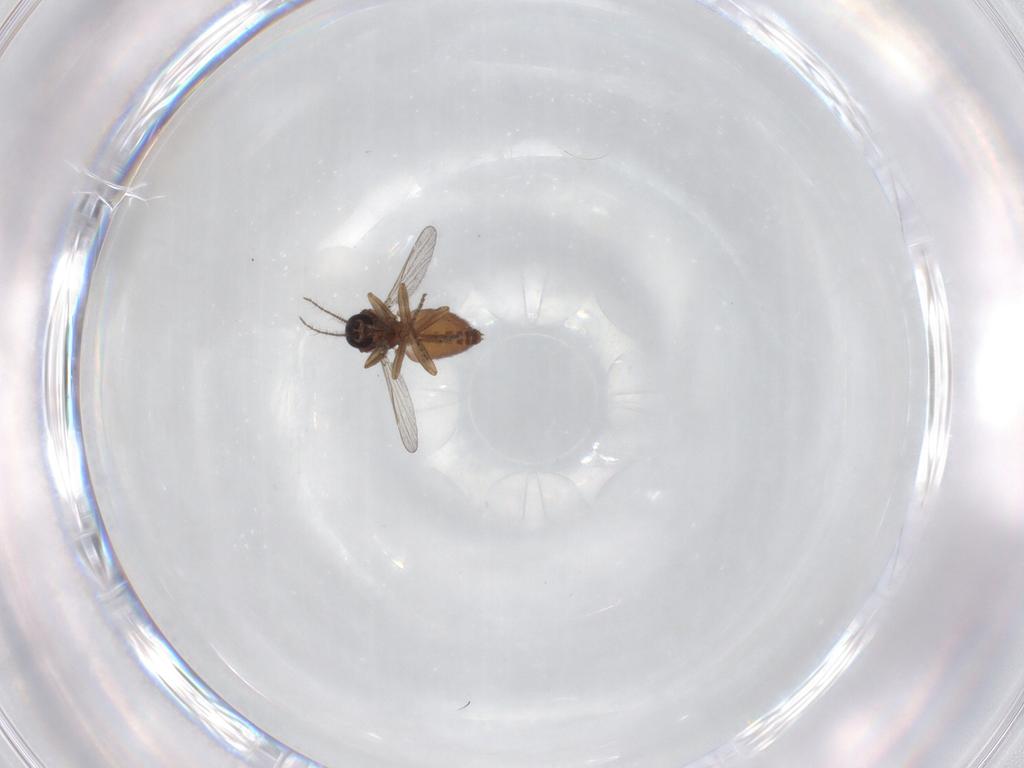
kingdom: Animalia
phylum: Arthropoda
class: Insecta
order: Diptera
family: Ceratopogonidae
